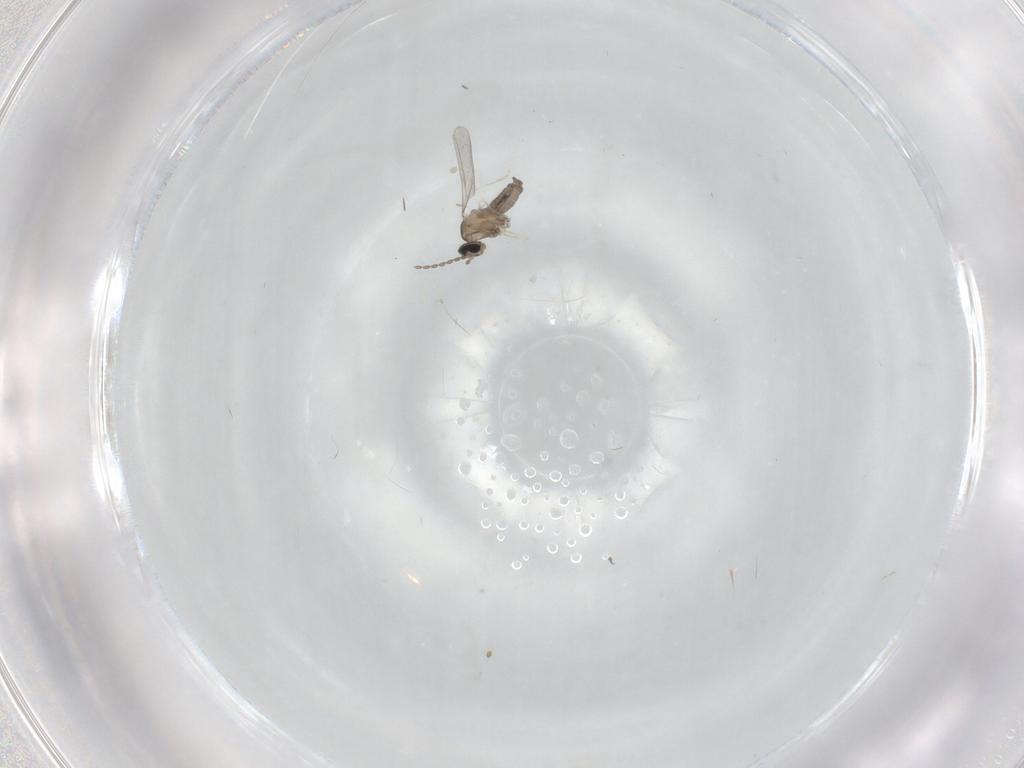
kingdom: Animalia
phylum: Arthropoda
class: Insecta
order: Diptera
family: Cecidomyiidae
